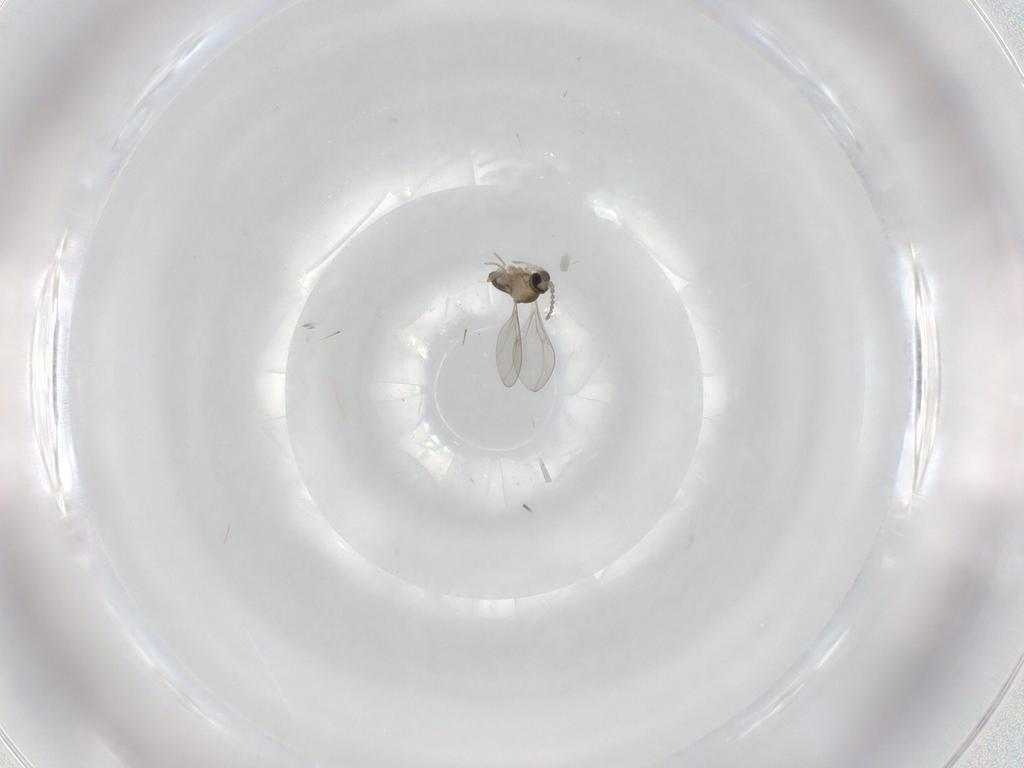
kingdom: Animalia
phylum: Arthropoda
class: Insecta
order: Diptera
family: Cecidomyiidae
